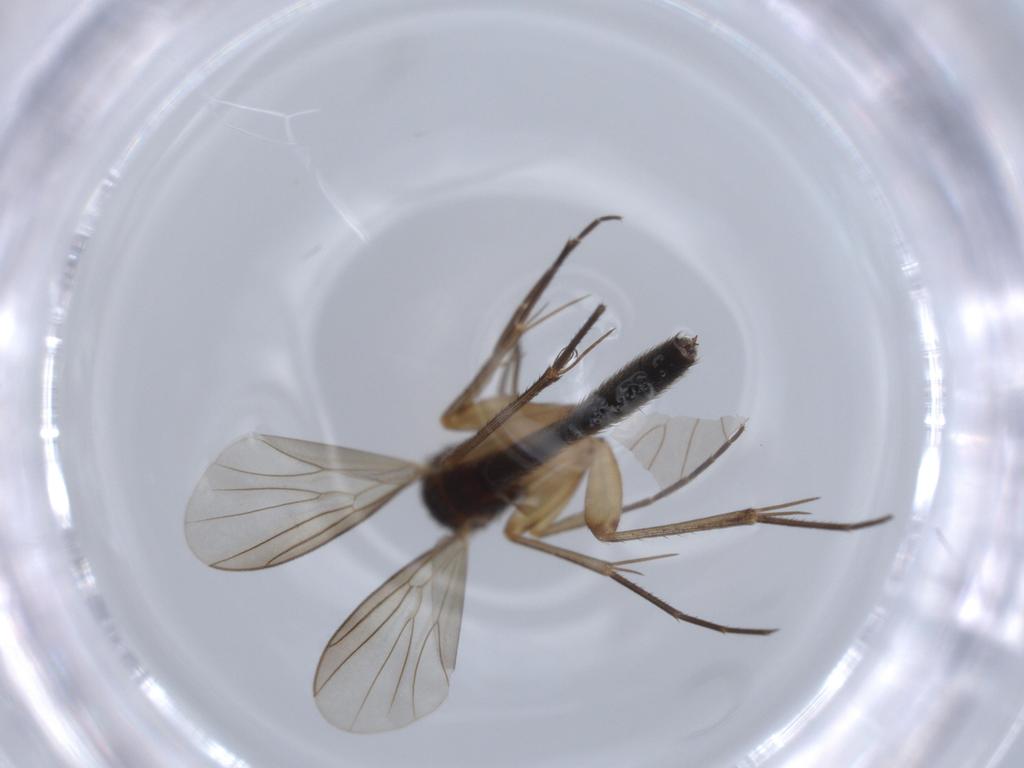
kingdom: Animalia
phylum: Arthropoda
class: Insecta
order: Diptera
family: Mycetophilidae
